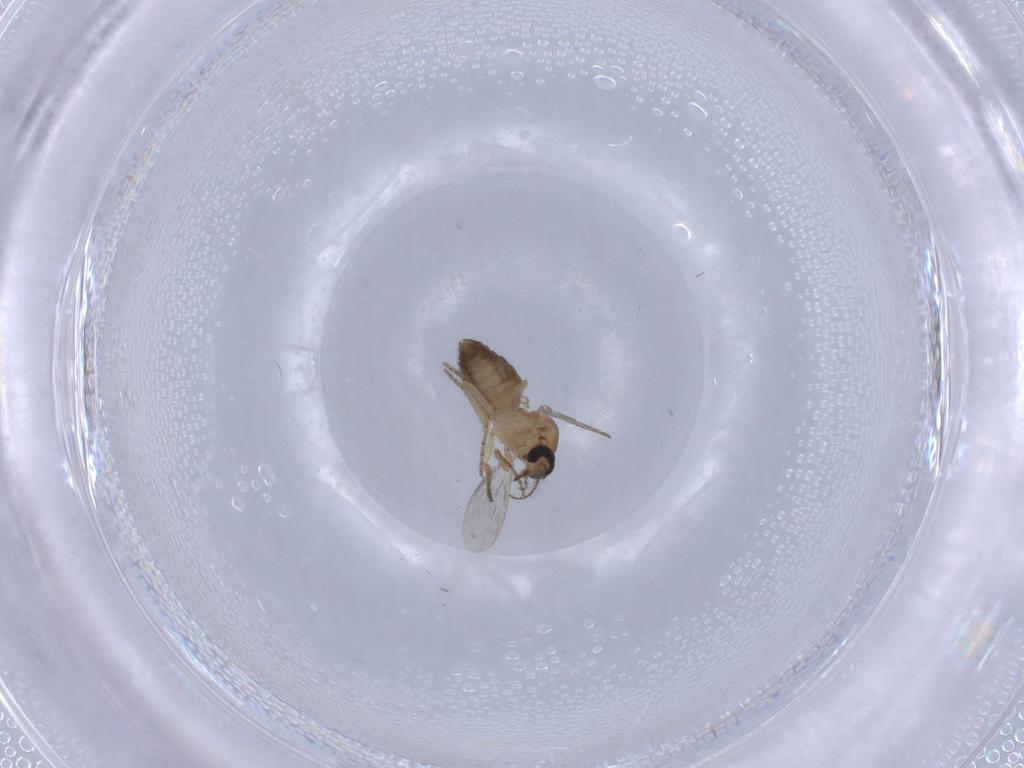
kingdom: Animalia
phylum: Arthropoda
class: Insecta
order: Diptera
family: Ceratopogonidae
